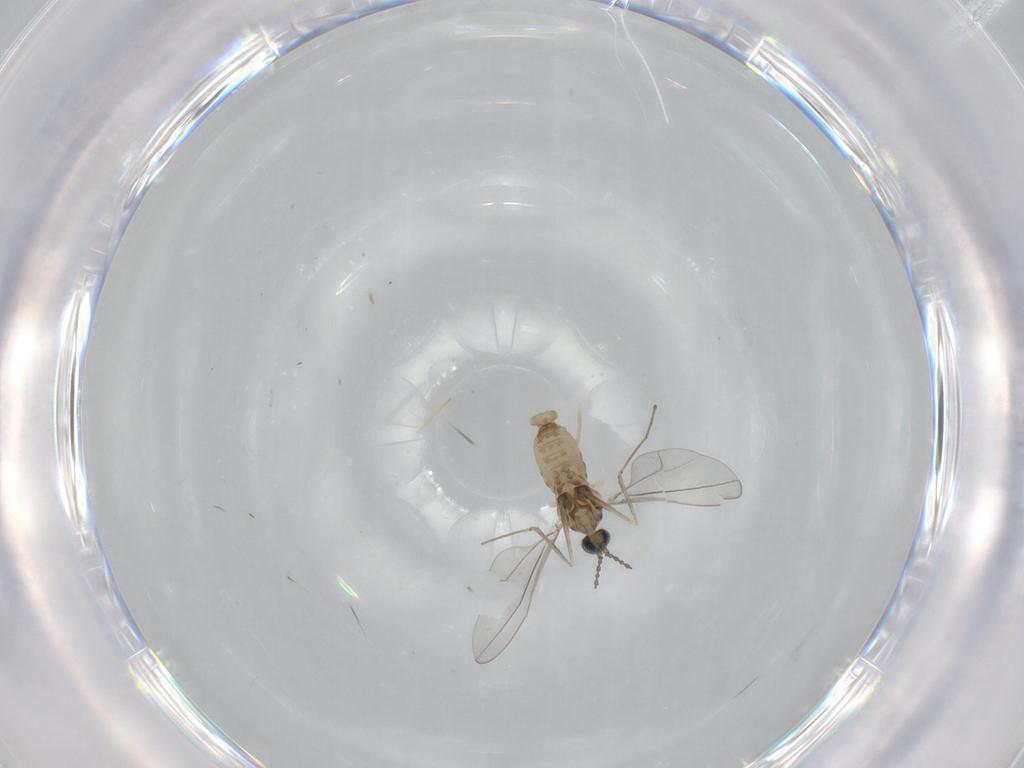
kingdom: Animalia
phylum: Arthropoda
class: Insecta
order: Diptera
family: Cecidomyiidae
